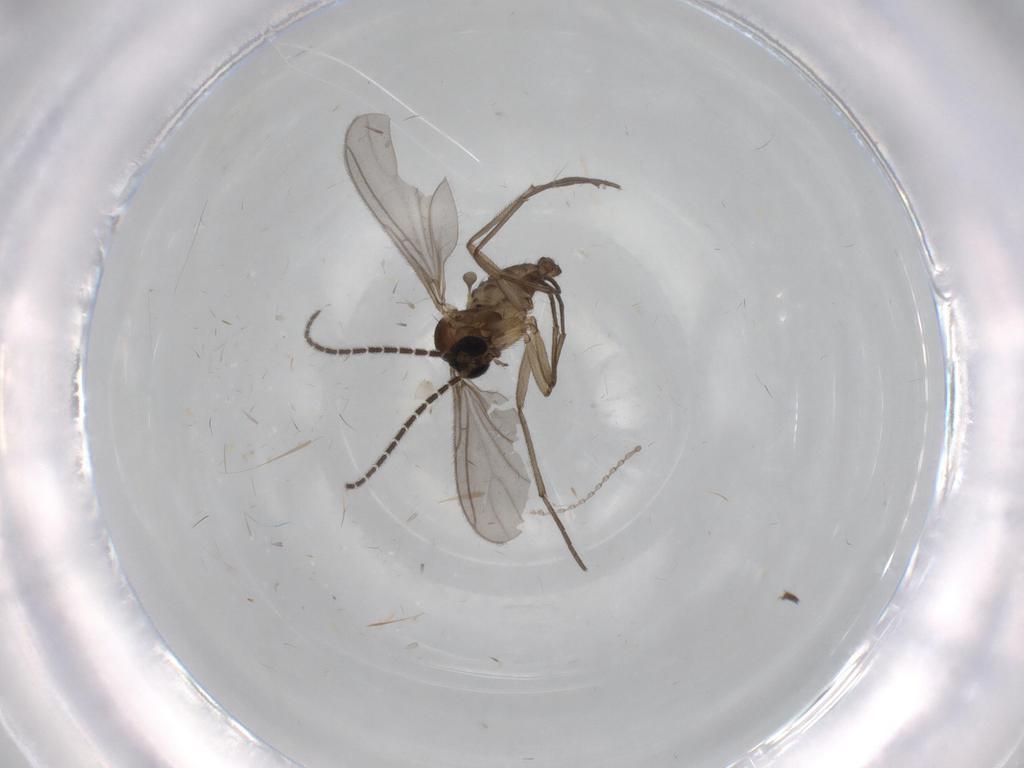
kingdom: Animalia
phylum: Arthropoda
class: Insecta
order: Diptera
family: Cecidomyiidae
